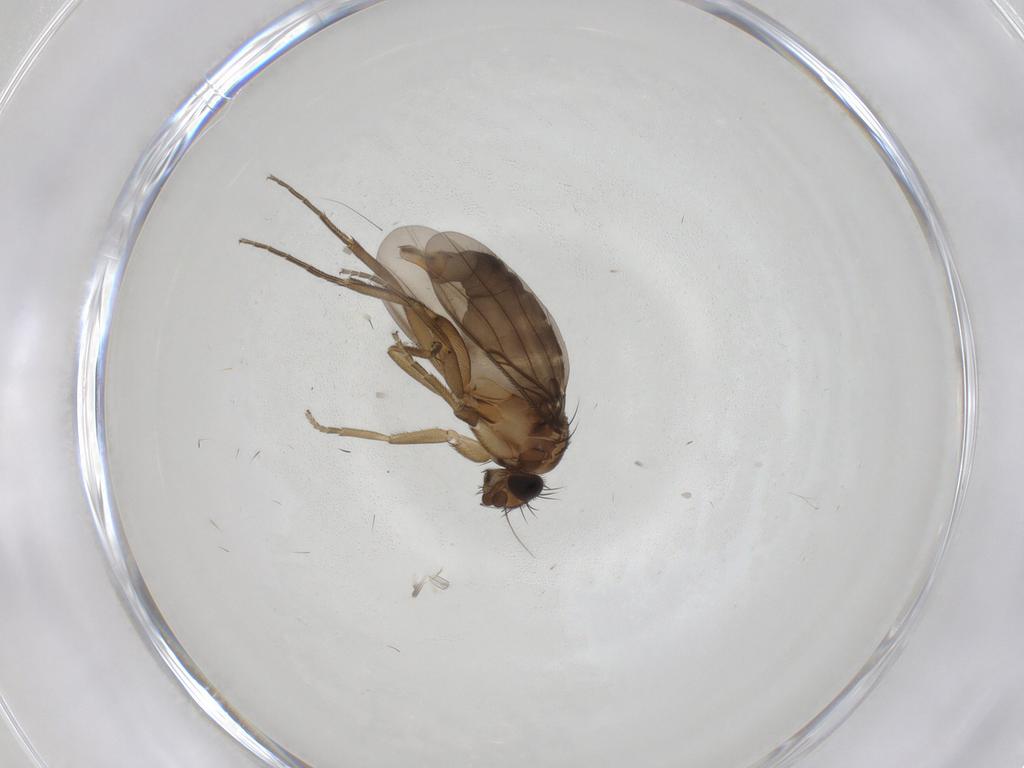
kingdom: Animalia
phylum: Arthropoda
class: Insecta
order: Diptera
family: Phoridae
